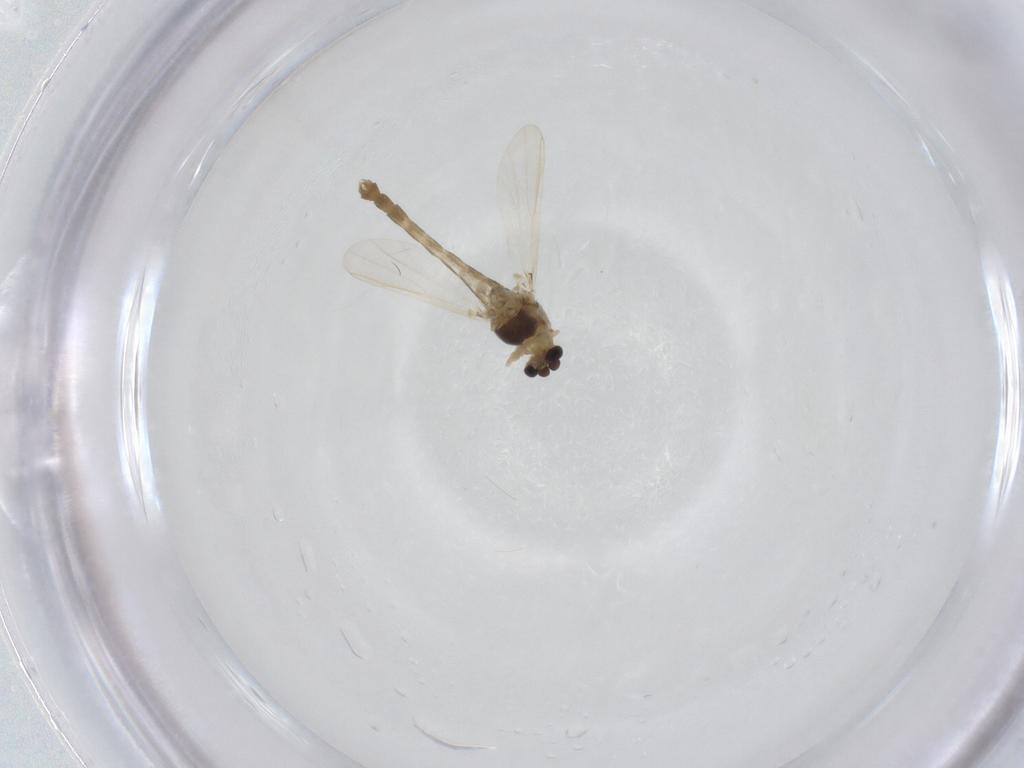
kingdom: Animalia
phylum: Arthropoda
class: Insecta
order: Diptera
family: Chironomidae
